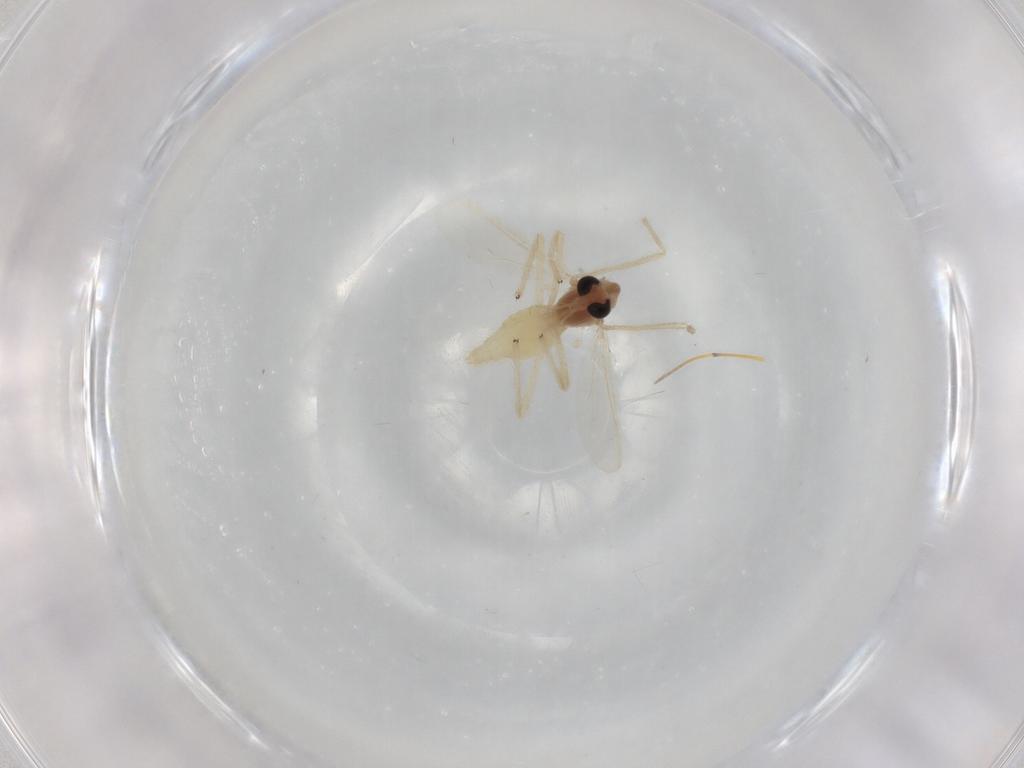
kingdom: Animalia
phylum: Arthropoda
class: Insecta
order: Diptera
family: Chironomidae
